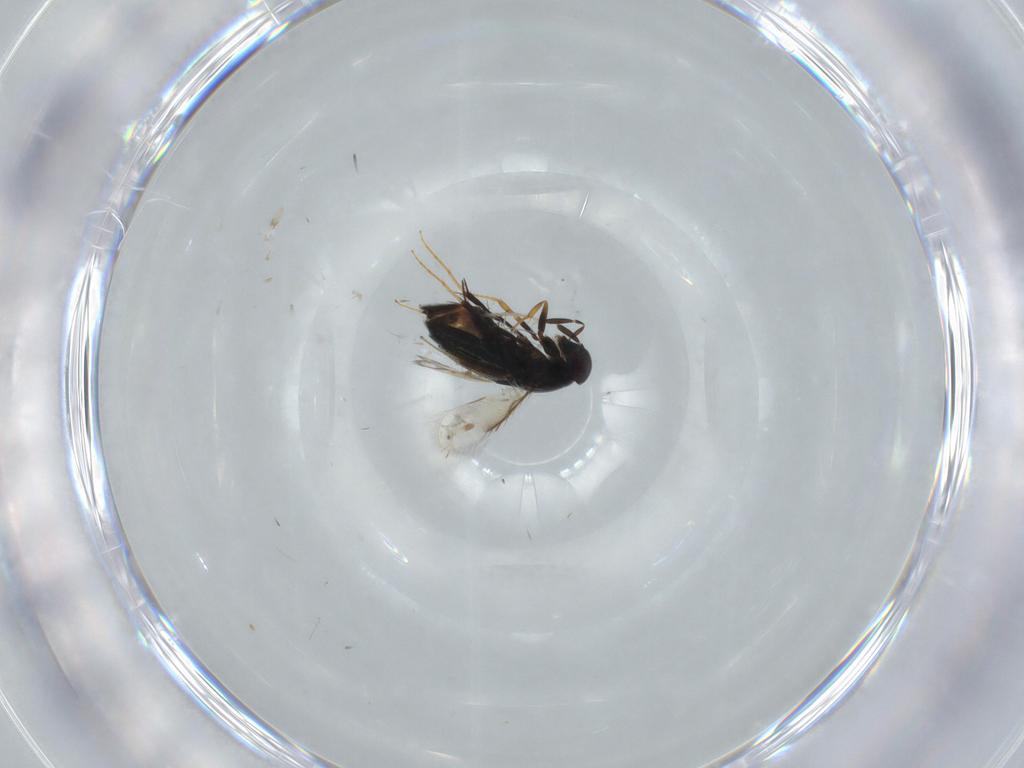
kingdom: Animalia
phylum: Arthropoda
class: Insecta
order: Hymenoptera
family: Signiphoridae
